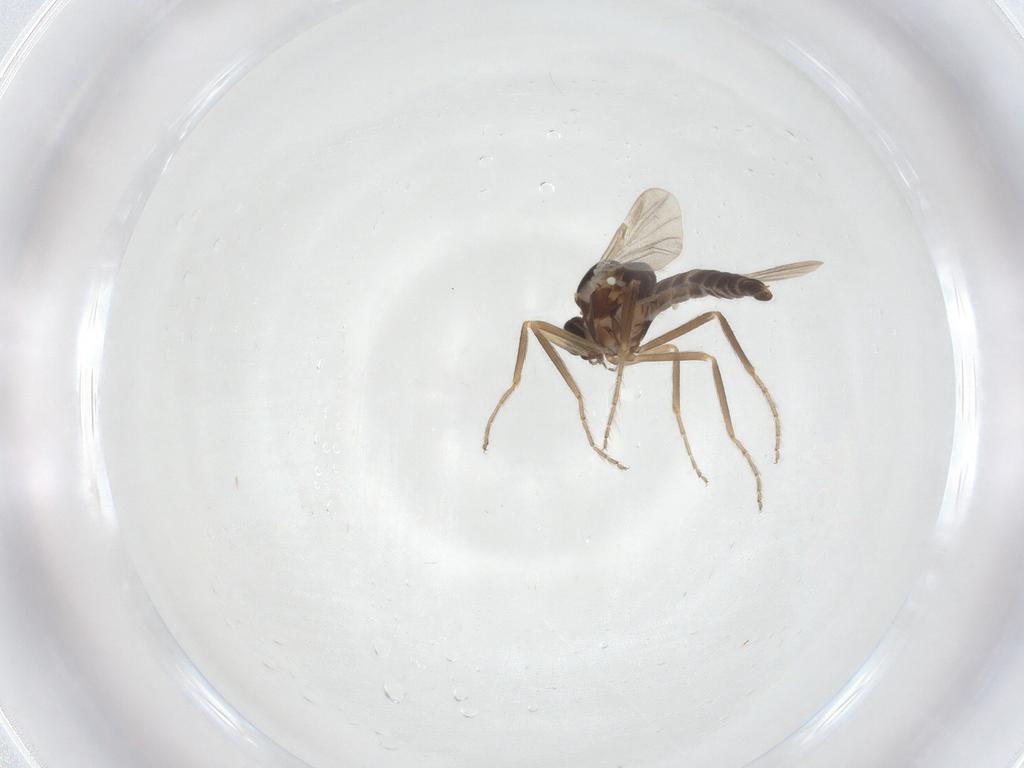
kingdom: Animalia
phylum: Arthropoda
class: Insecta
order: Diptera
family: Ceratopogonidae
